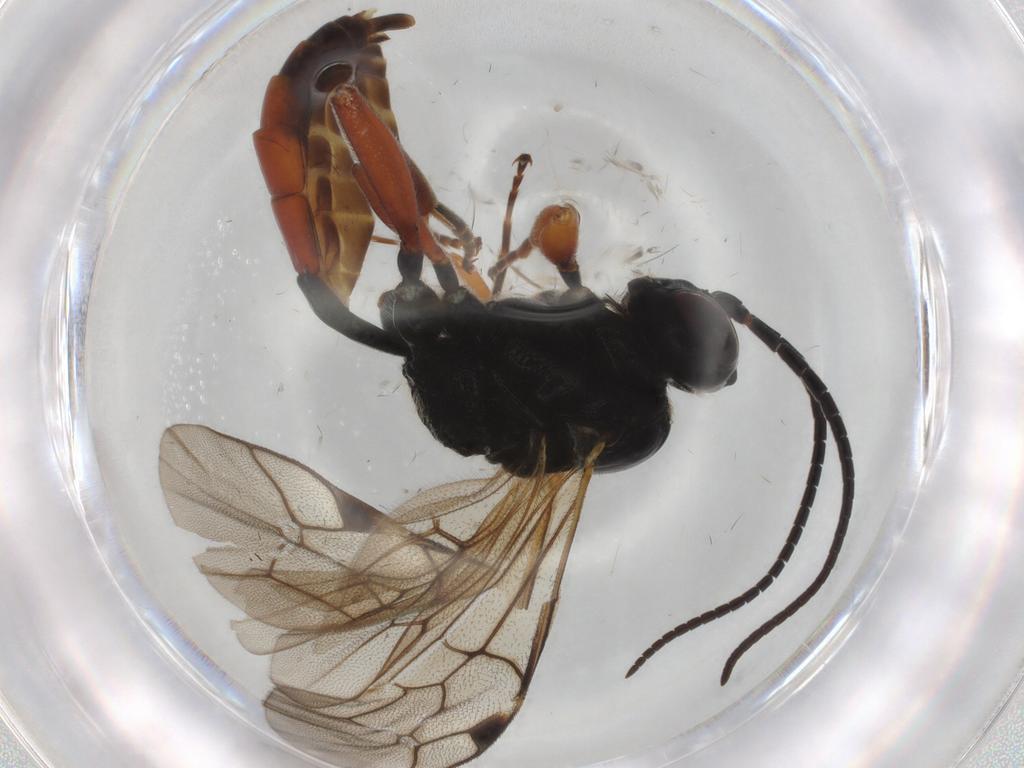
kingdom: Animalia
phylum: Arthropoda
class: Insecta
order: Hymenoptera
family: Ichneumonidae
